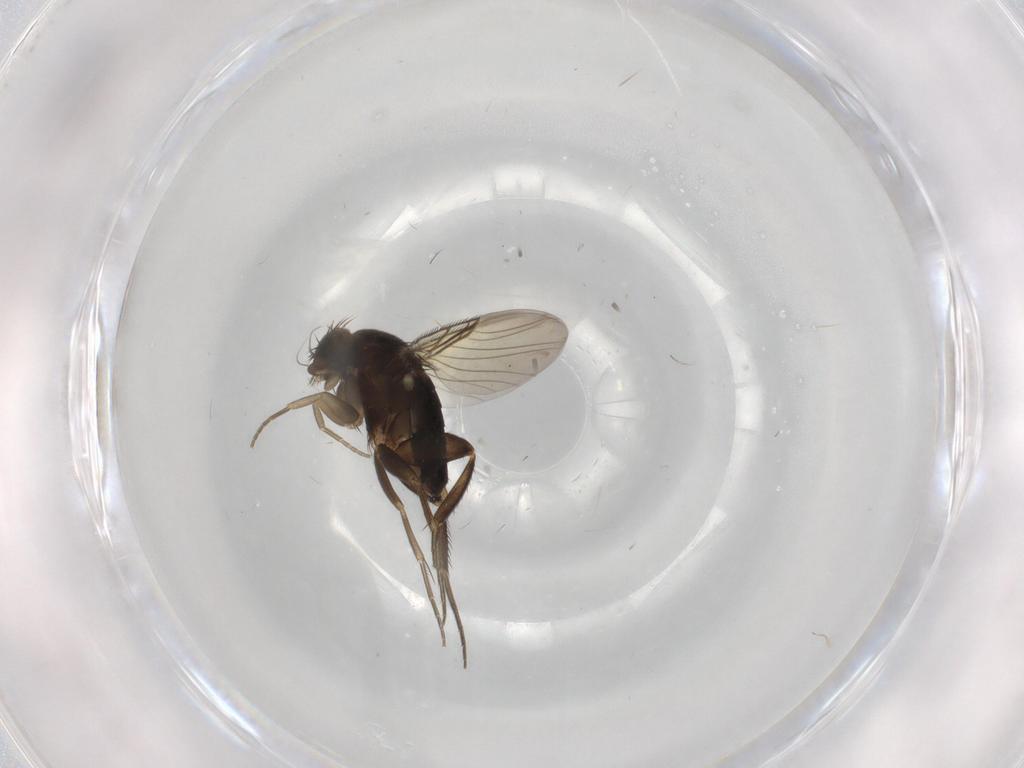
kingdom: Animalia
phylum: Arthropoda
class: Insecta
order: Diptera
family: Phoridae
